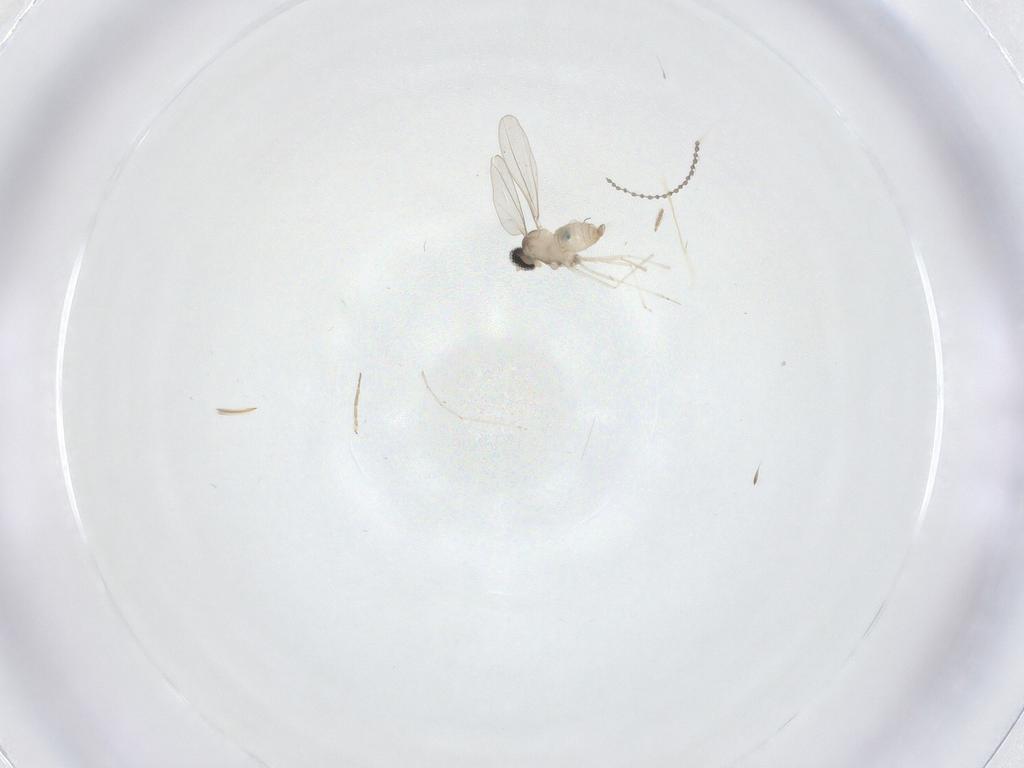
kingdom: Animalia
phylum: Arthropoda
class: Insecta
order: Diptera
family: Cecidomyiidae
